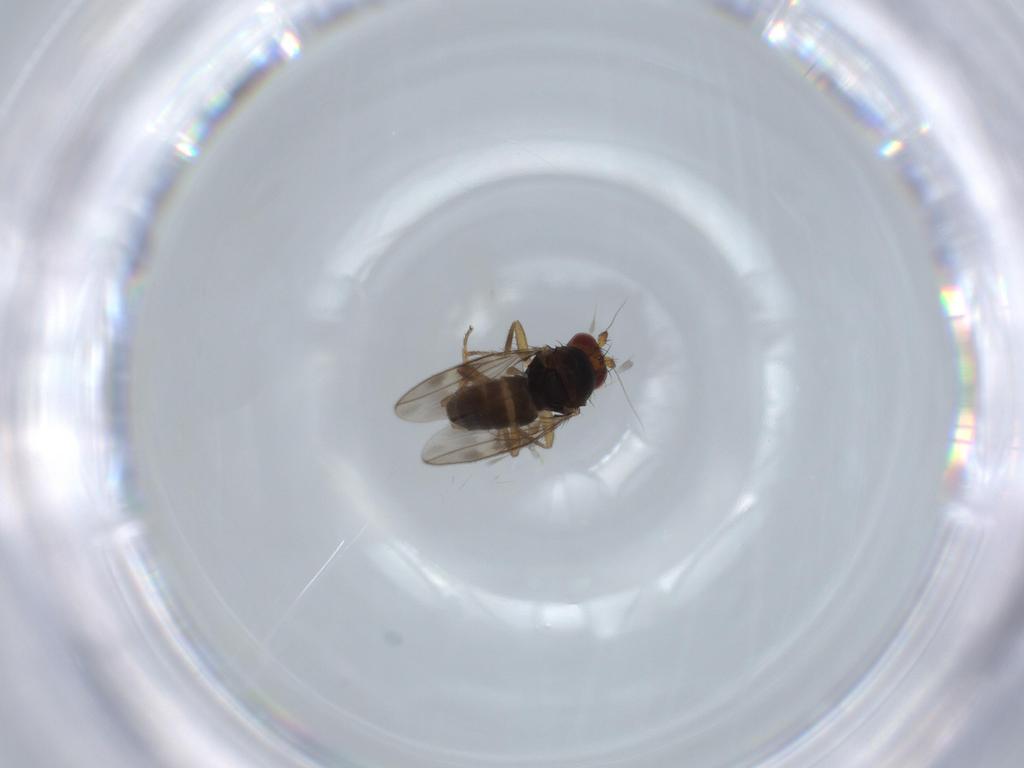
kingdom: Animalia
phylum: Arthropoda
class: Insecta
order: Diptera
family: Sphaeroceridae
